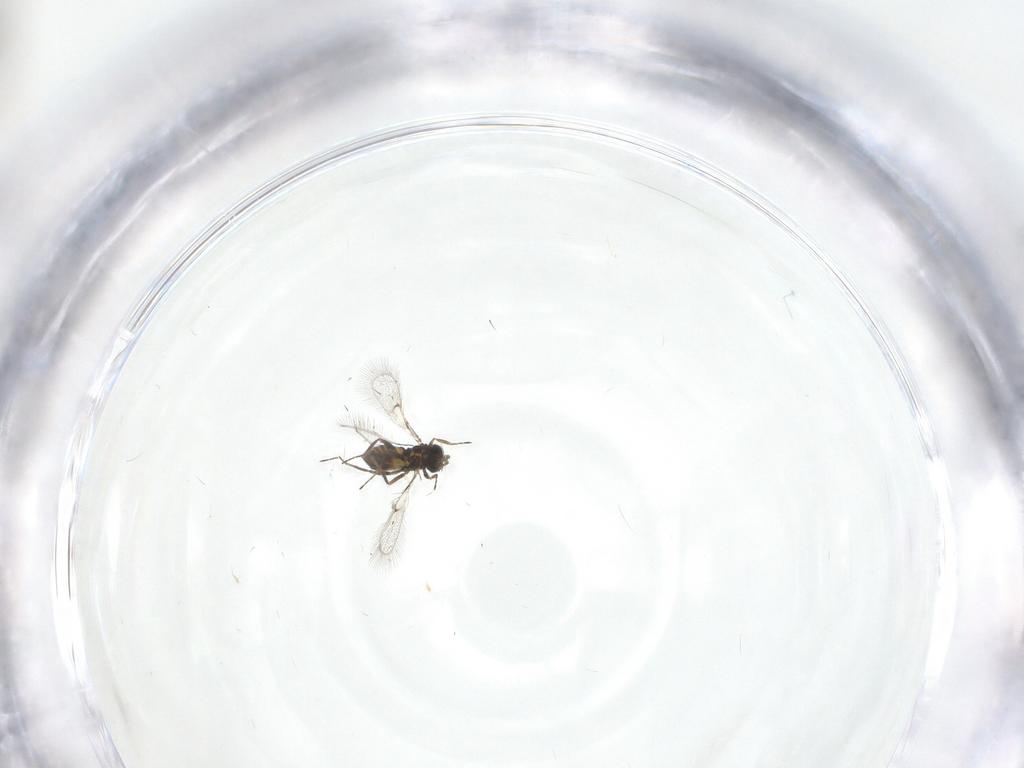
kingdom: Animalia
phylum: Arthropoda
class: Insecta
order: Hymenoptera
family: Trichogrammatidae
